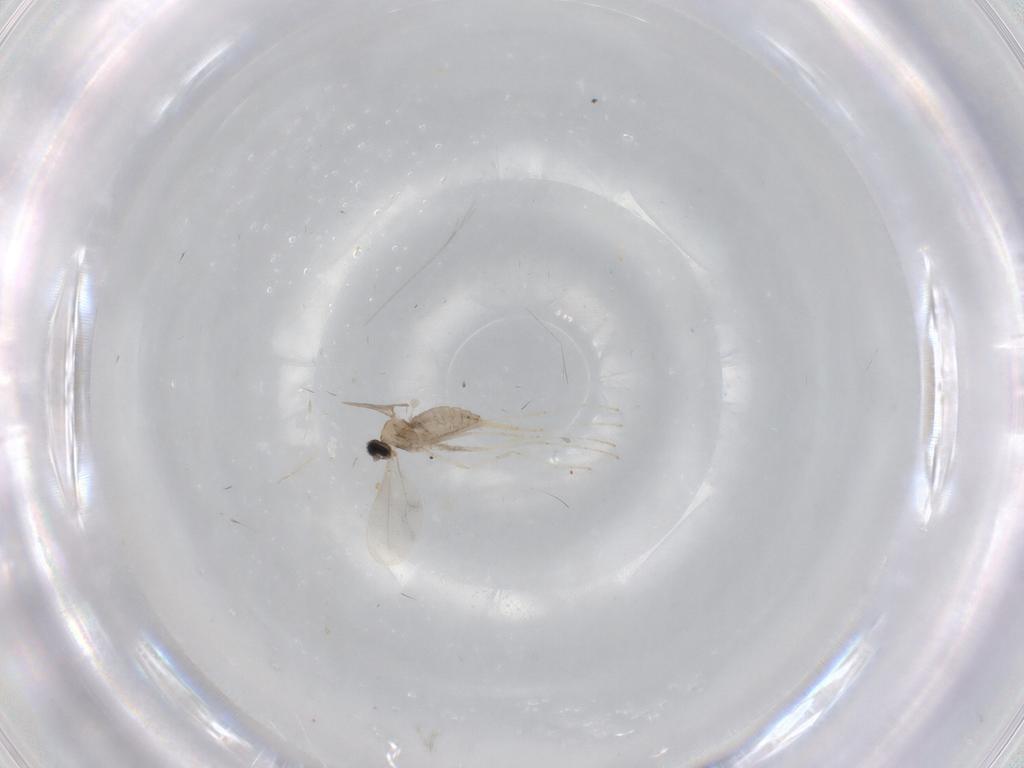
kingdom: Animalia
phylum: Arthropoda
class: Insecta
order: Diptera
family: Cecidomyiidae
